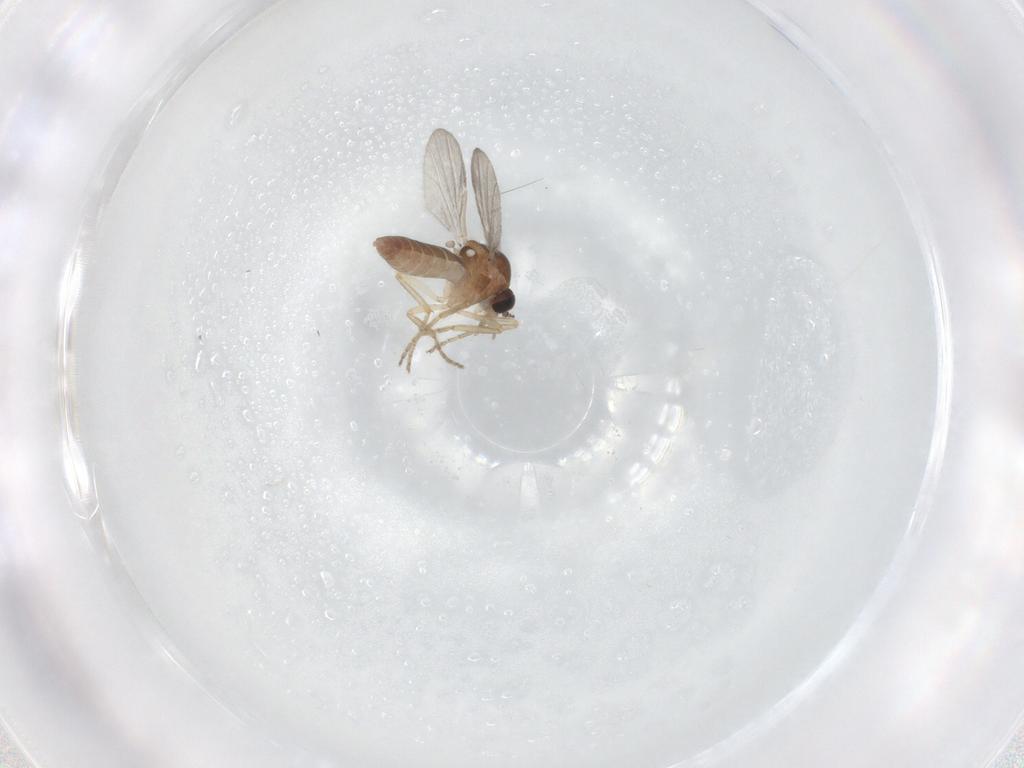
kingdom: Animalia
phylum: Arthropoda
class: Insecta
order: Diptera
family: Ceratopogonidae
